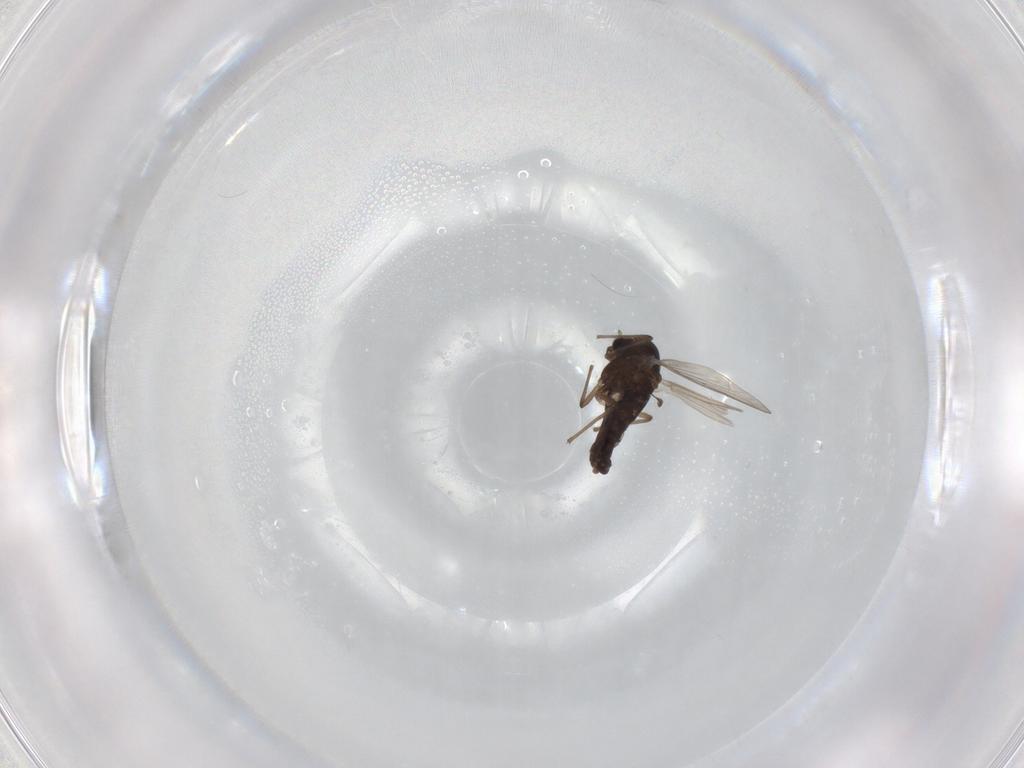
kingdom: Animalia
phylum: Arthropoda
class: Insecta
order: Diptera
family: Chironomidae
